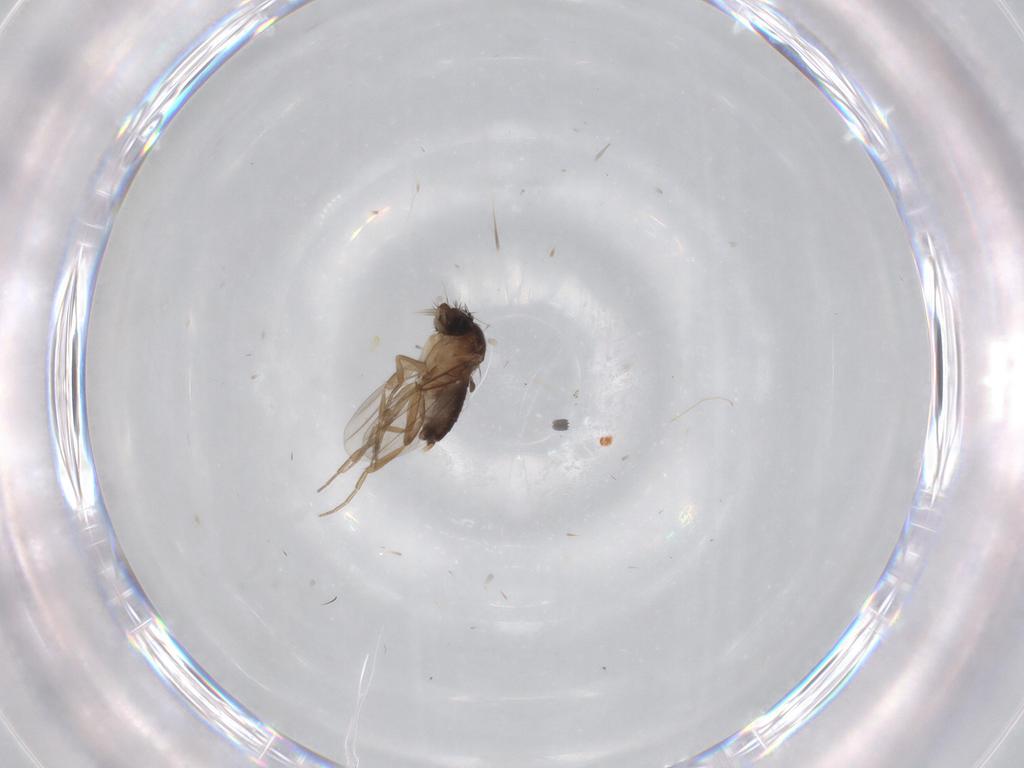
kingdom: Animalia
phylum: Arthropoda
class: Insecta
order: Diptera
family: Phoridae
